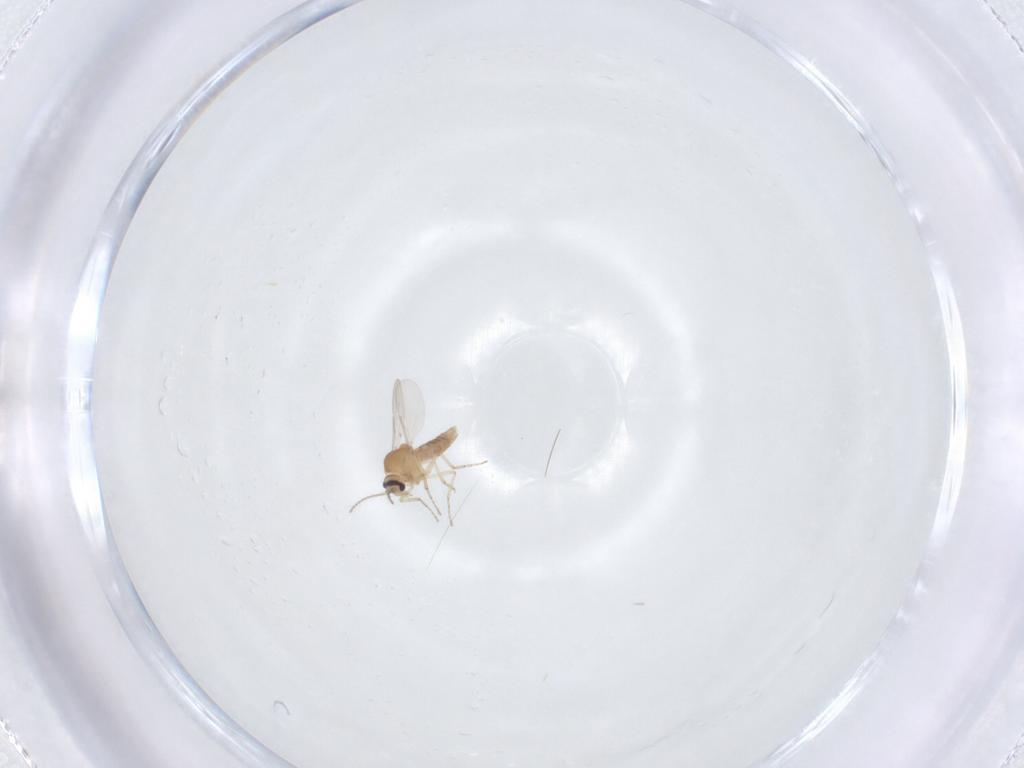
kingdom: Animalia
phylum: Arthropoda
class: Insecta
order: Diptera
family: Ceratopogonidae
